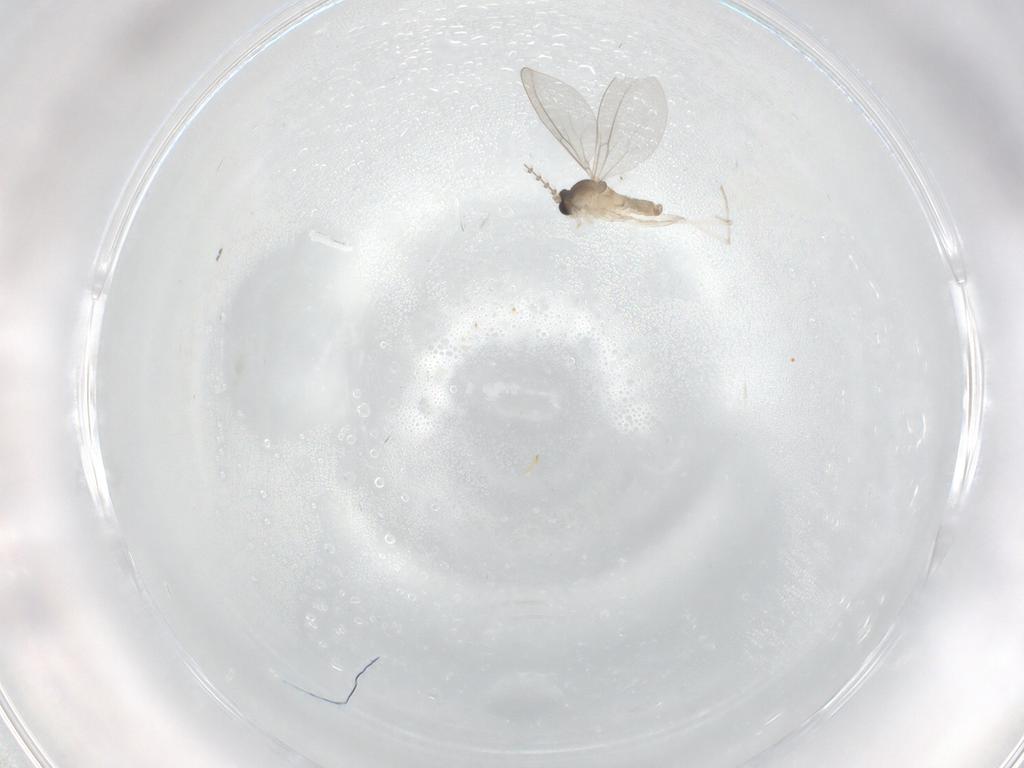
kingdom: Animalia
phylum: Arthropoda
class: Insecta
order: Diptera
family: Cecidomyiidae
